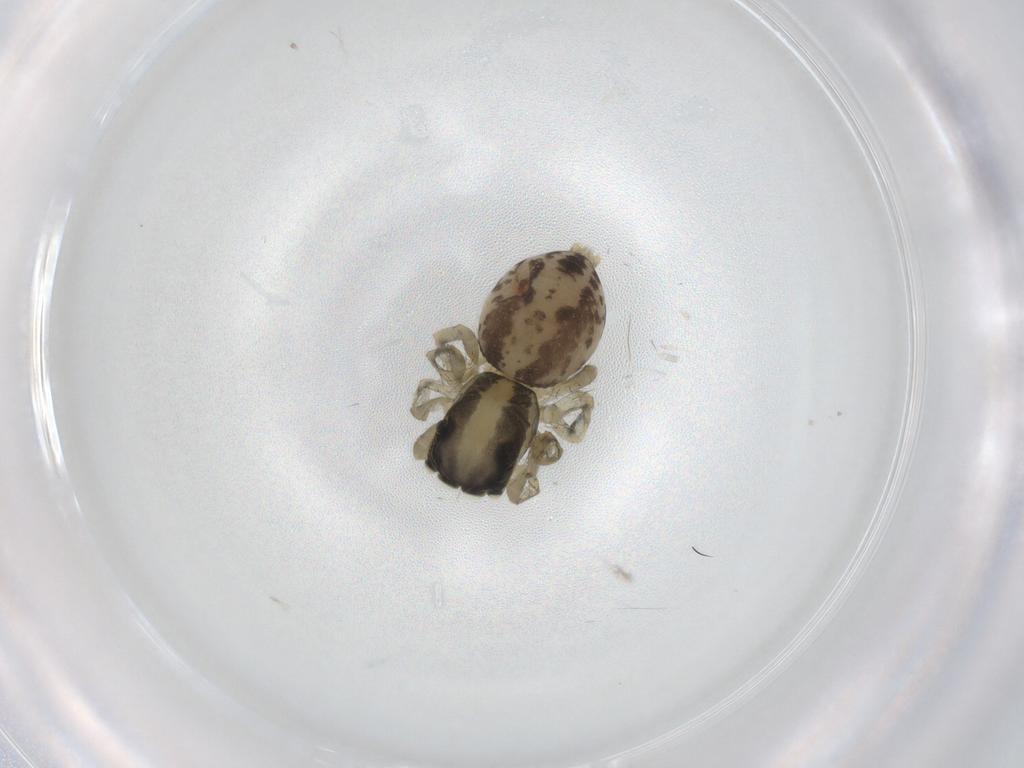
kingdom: Animalia
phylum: Arthropoda
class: Arachnida
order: Araneae
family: Salticidae
